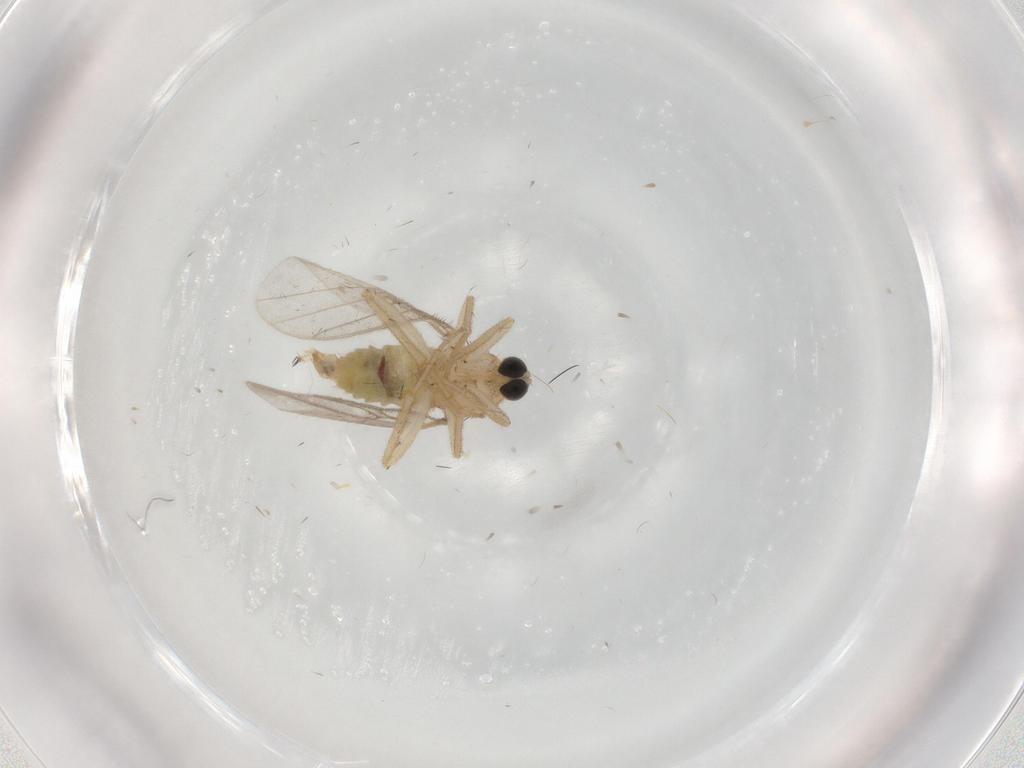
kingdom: Animalia
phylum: Arthropoda
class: Insecta
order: Diptera
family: Hybotidae
